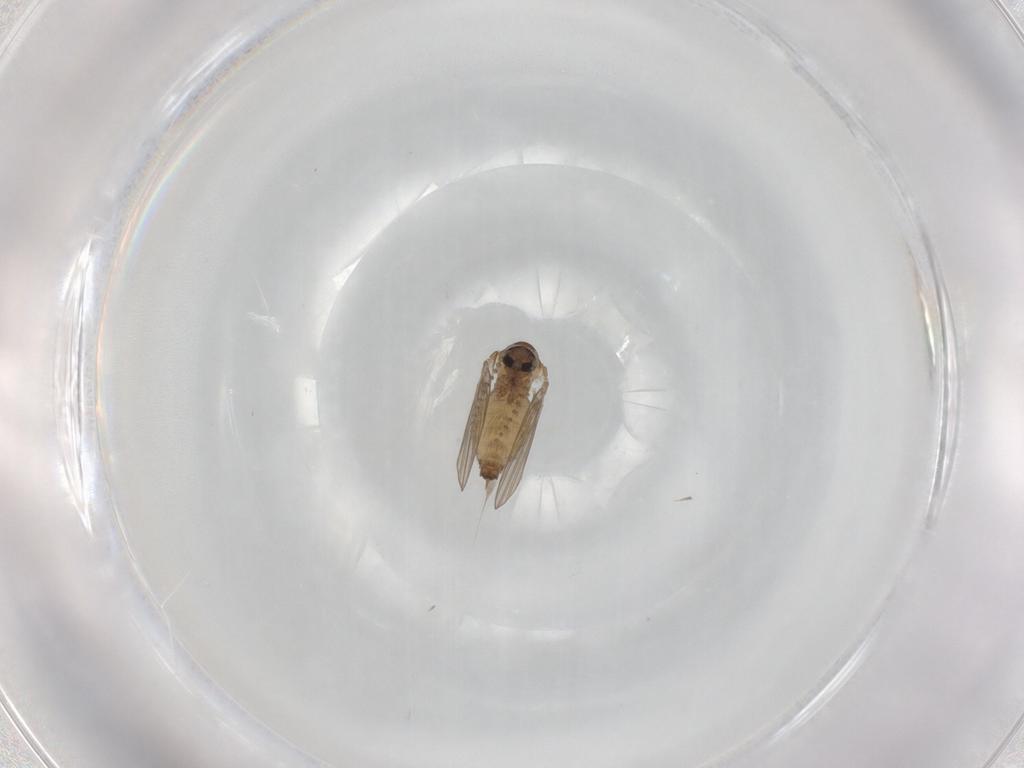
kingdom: Animalia
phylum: Arthropoda
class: Insecta
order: Diptera
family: Psychodidae
